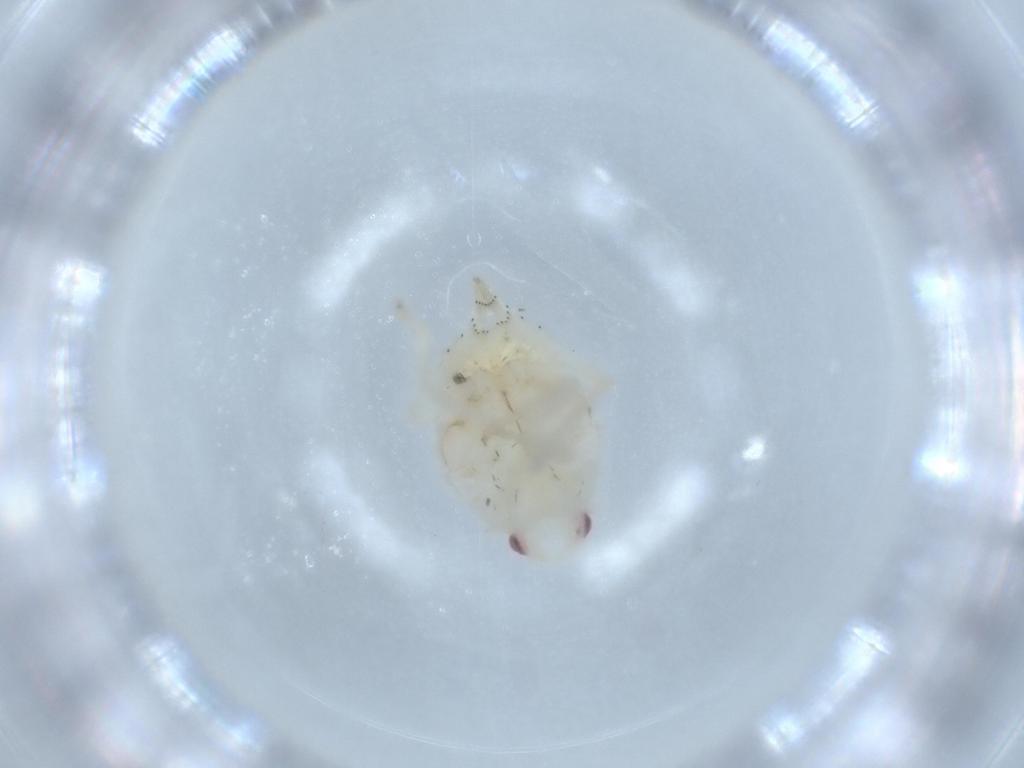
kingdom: Animalia
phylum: Arthropoda
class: Insecta
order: Hemiptera
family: Flatidae
